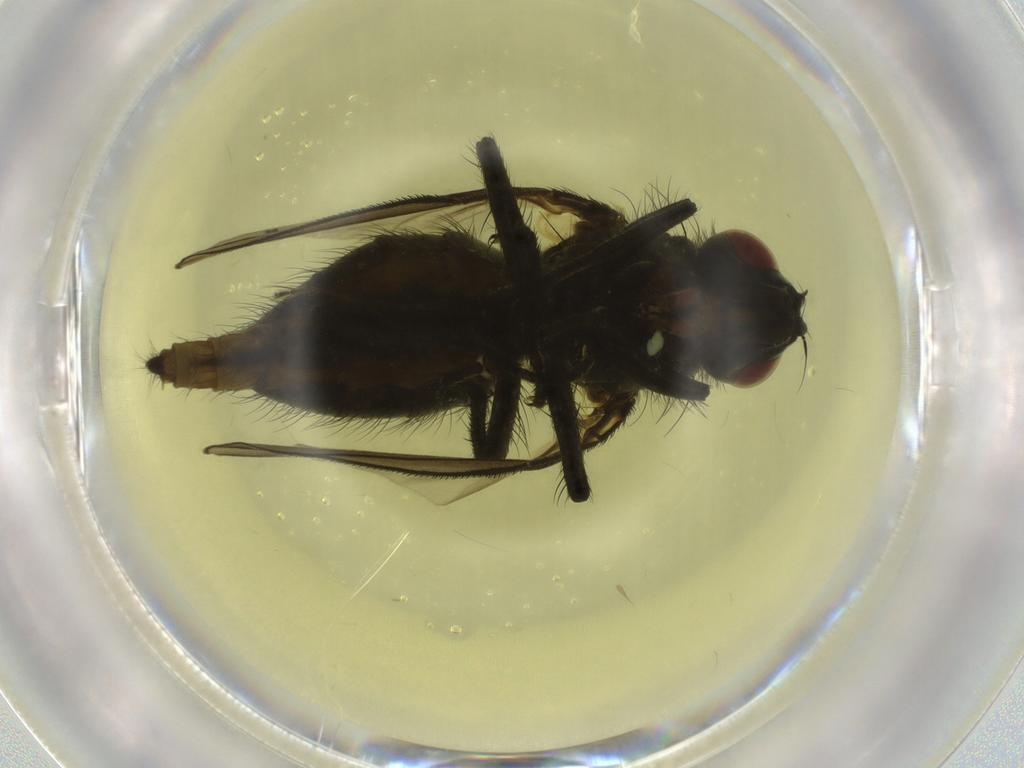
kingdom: Animalia
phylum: Arthropoda
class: Insecta
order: Diptera
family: Muscidae
